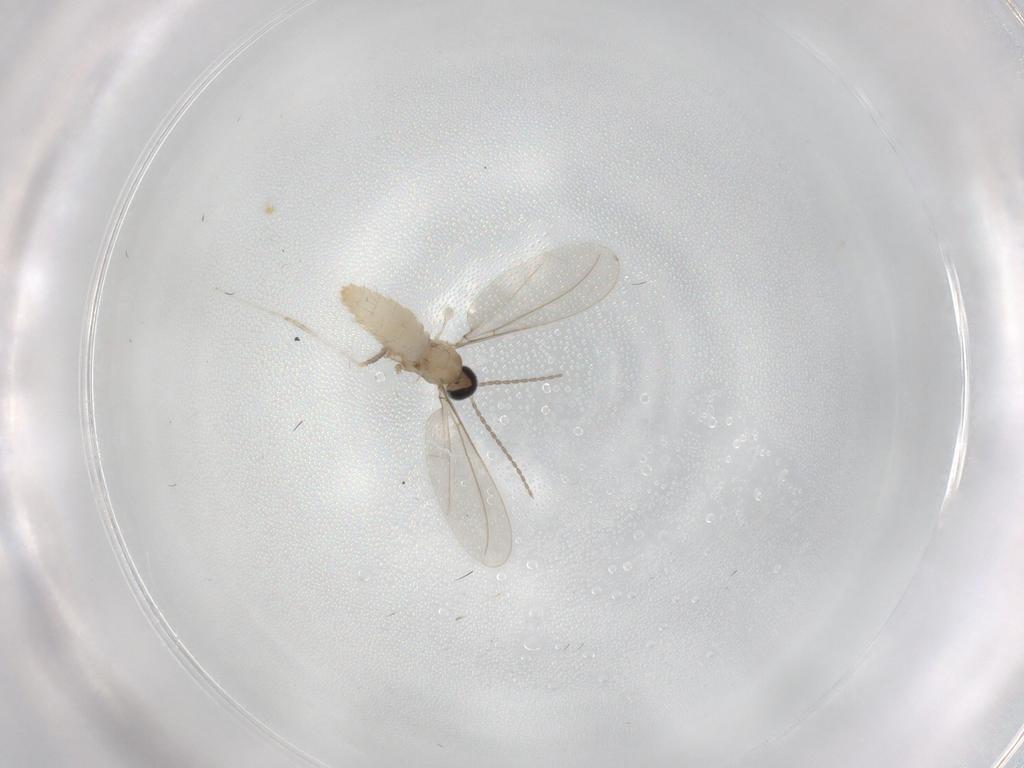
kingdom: Animalia
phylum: Arthropoda
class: Insecta
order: Diptera
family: Cecidomyiidae
